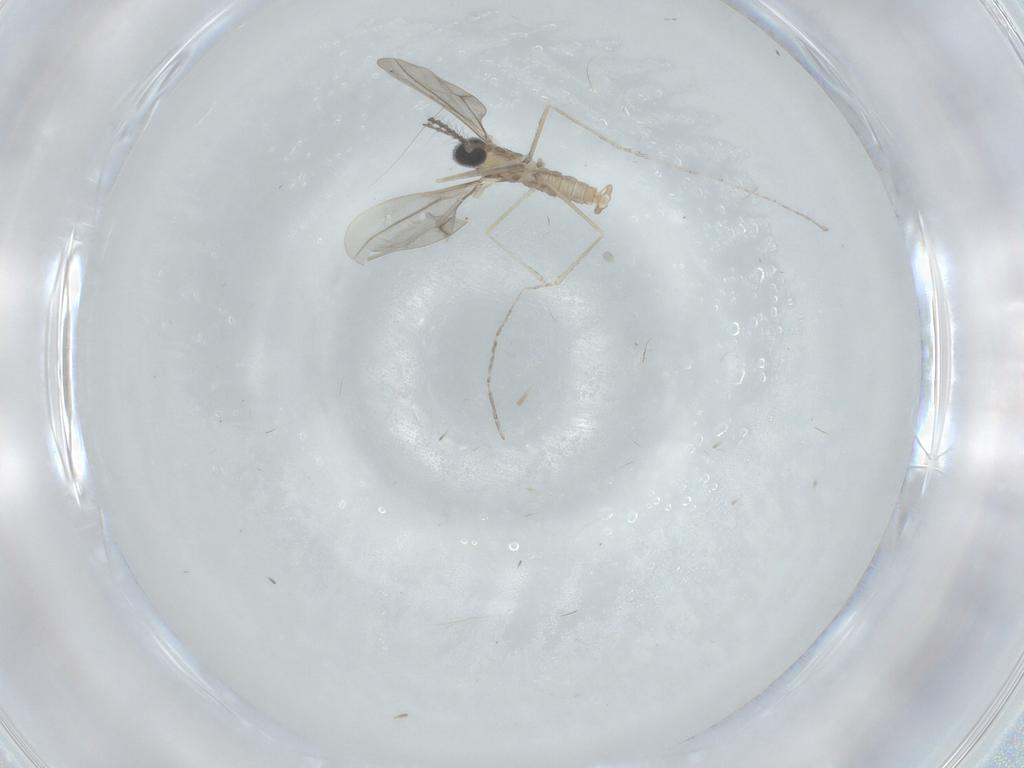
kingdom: Animalia
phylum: Arthropoda
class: Insecta
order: Diptera
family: Cecidomyiidae
